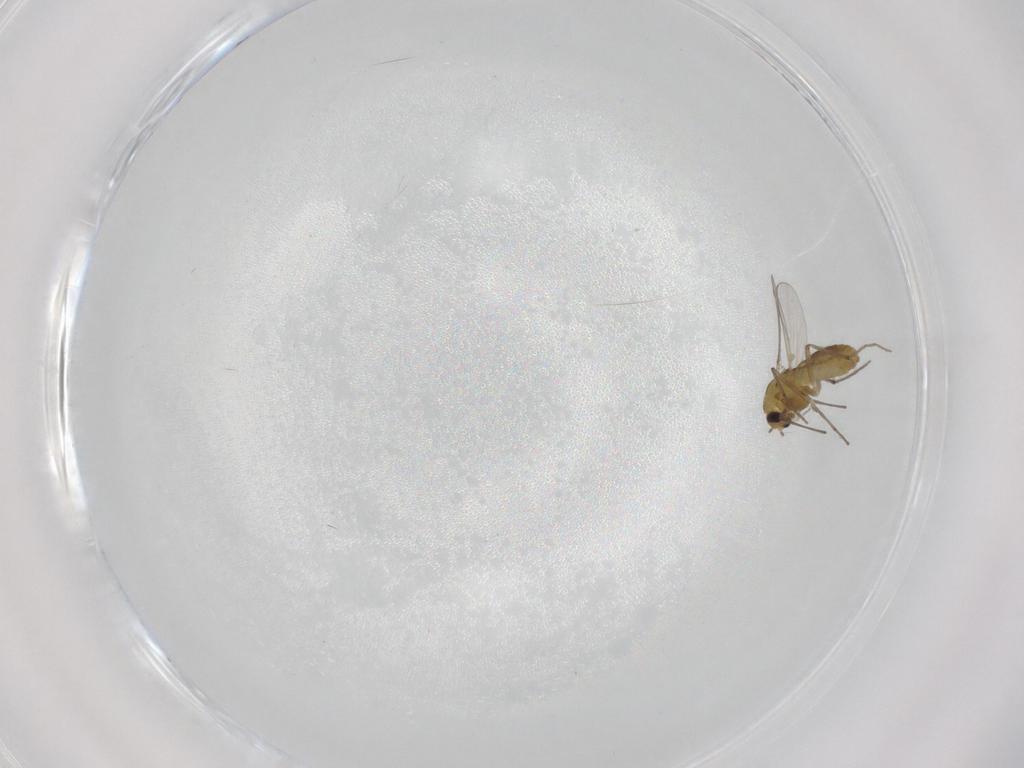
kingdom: Animalia
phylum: Arthropoda
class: Insecta
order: Diptera
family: Chironomidae
